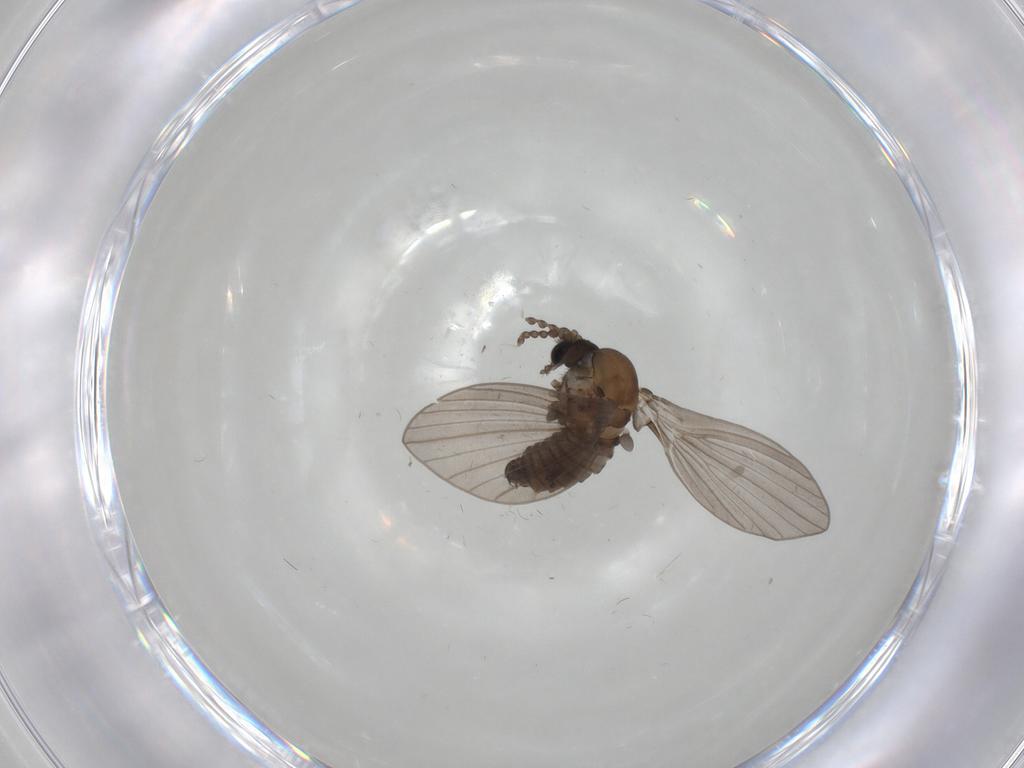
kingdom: Animalia
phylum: Arthropoda
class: Insecta
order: Diptera
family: Psychodidae
